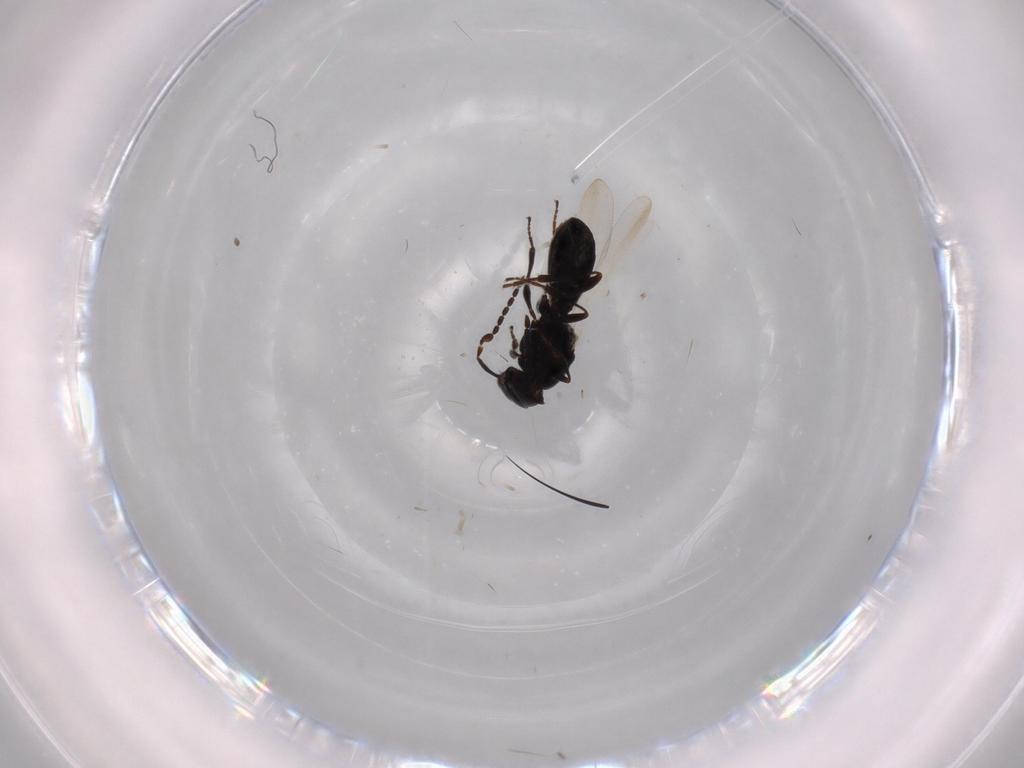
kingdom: Animalia
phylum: Arthropoda
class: Insecta
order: Hymenoptera
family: Platygastridae
